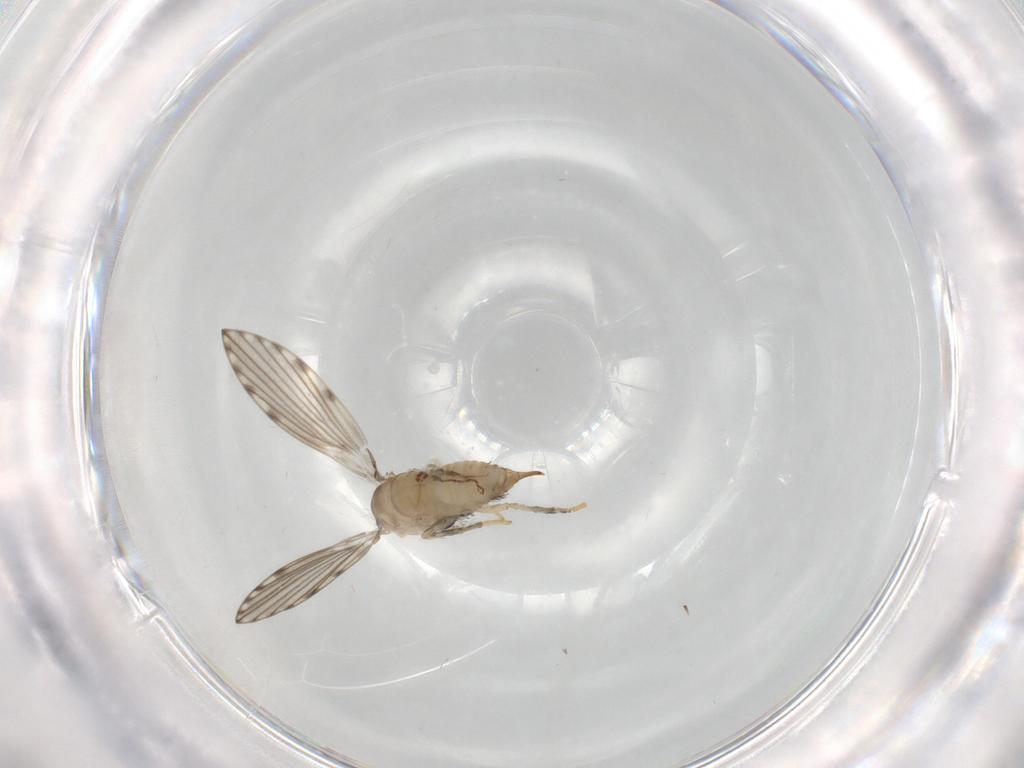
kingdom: Animalia
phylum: Arthropoda
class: Insecta
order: Diptera
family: Psychodidae
